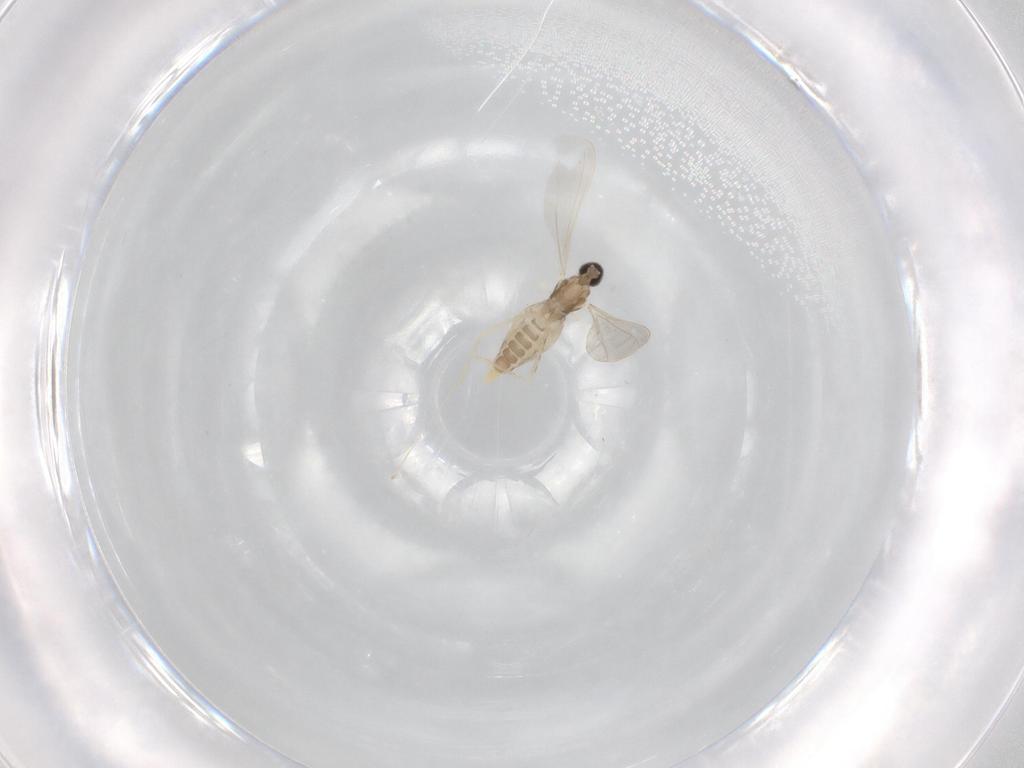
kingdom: Animalia
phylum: Arthropoda
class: Insecta
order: Diptera
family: Cecidomyiidae
